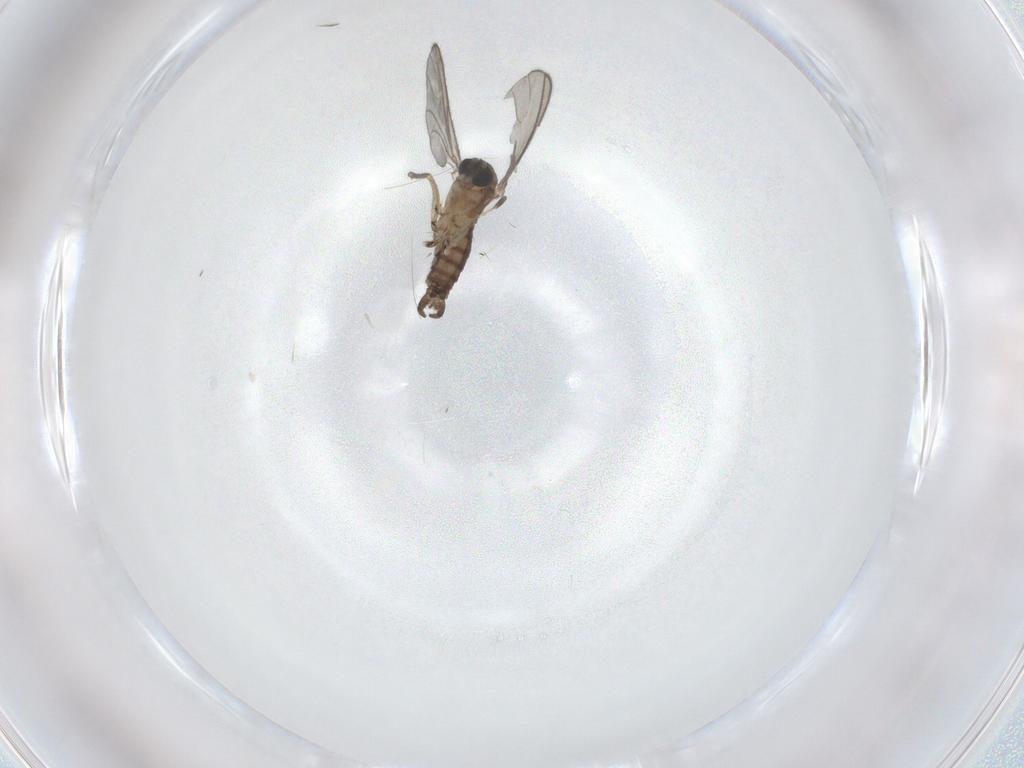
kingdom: Animalia
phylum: Arthropoda
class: Insecta
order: Diptera
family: Sciaridae
